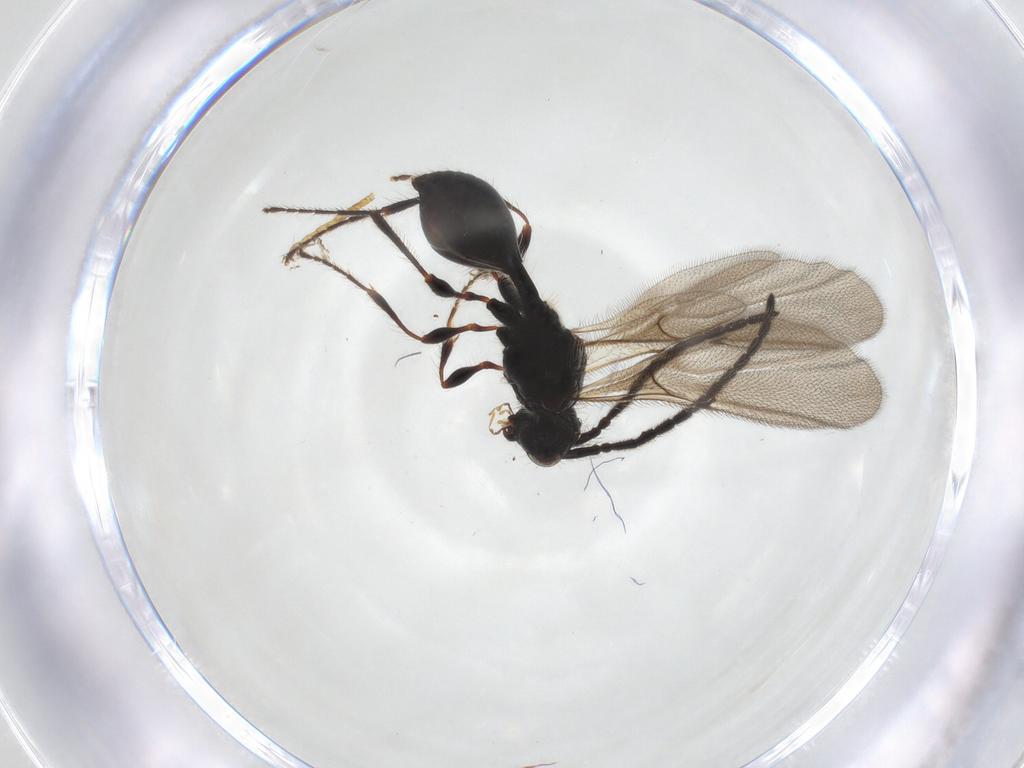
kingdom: Animalia
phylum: Arthropoda
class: Insecta
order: Hymenoptera
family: Diapriidae
